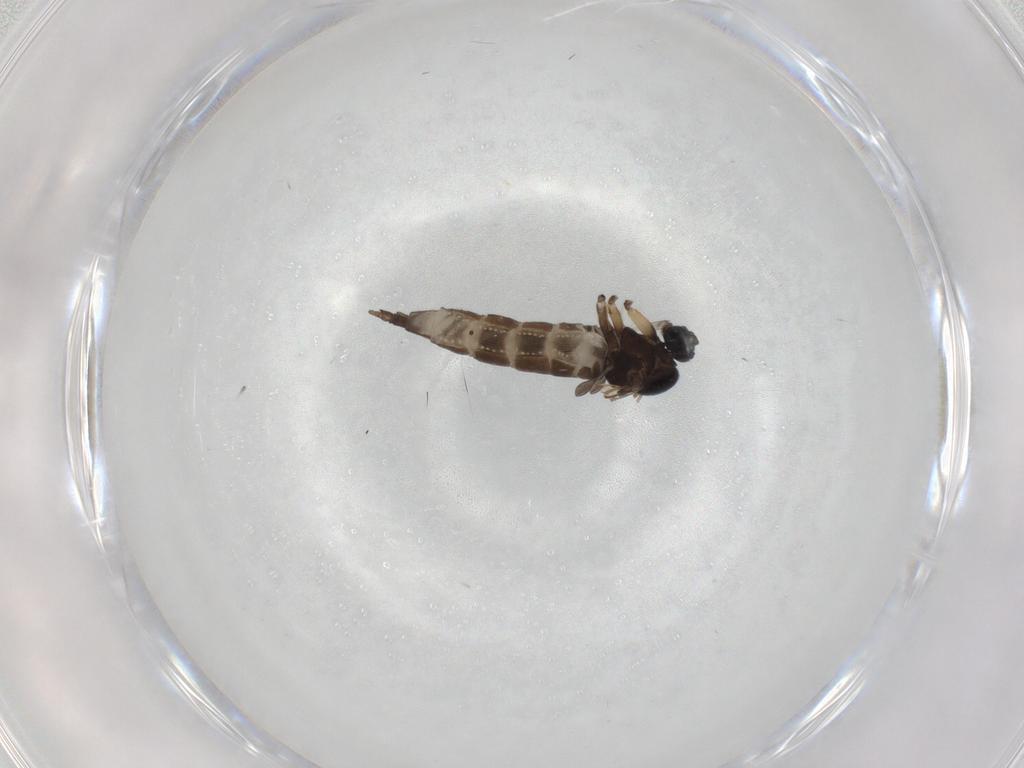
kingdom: Animalia
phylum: Arthropoda
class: Insecta
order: Diptera
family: Sciaridae
